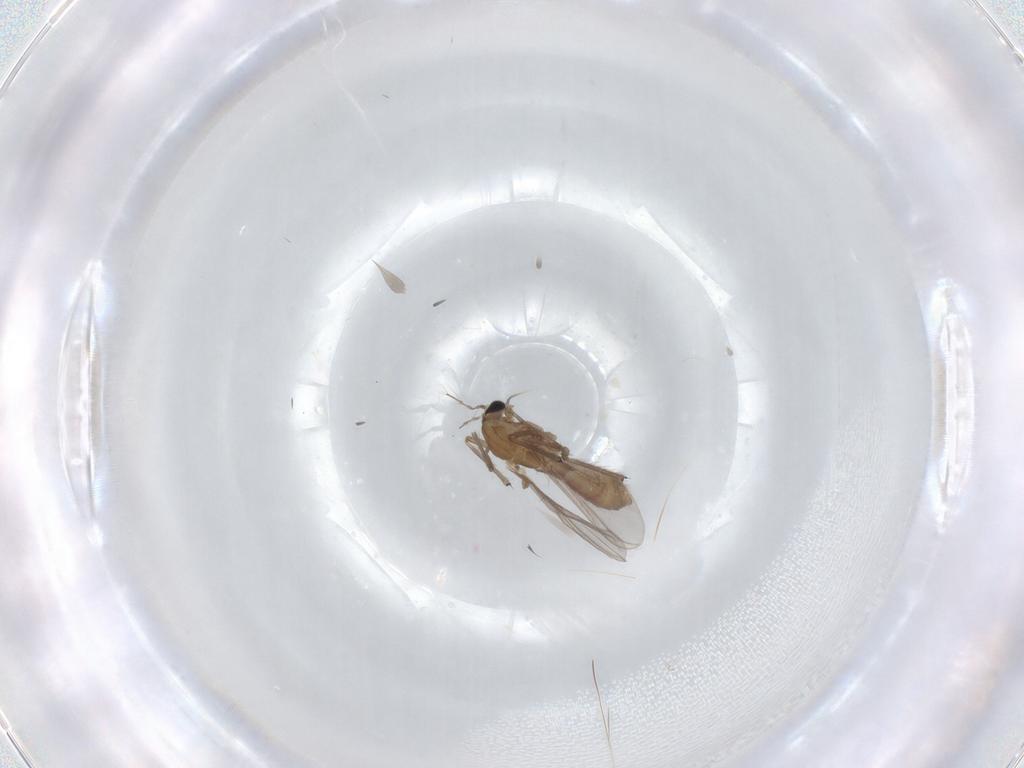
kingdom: Animalia
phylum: Arthropoda
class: Insecta
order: Diptera
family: Chironomidae
